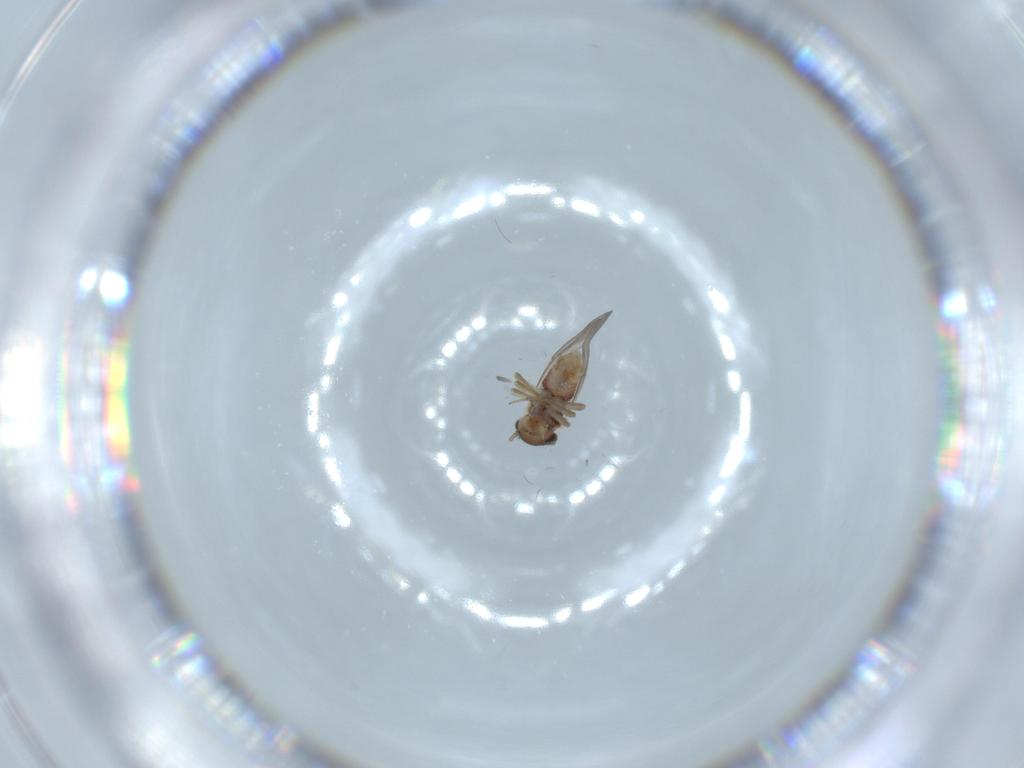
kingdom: Animalia
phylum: Arthropoda
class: Insecta
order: Psocodea
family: Peripsocidae
